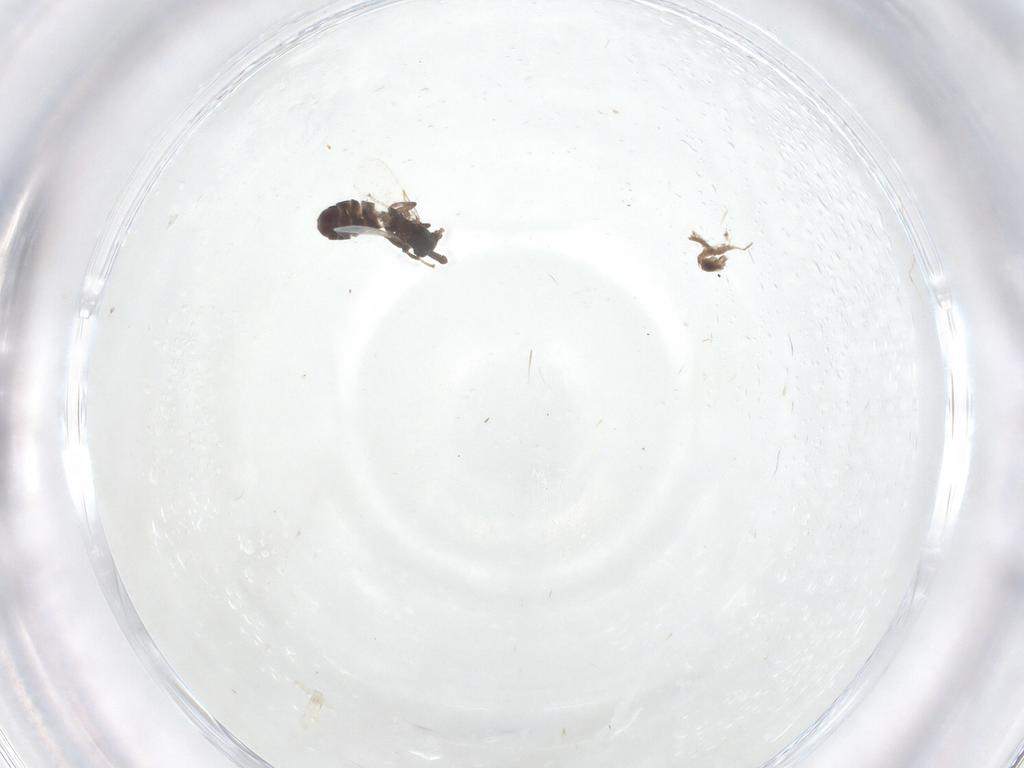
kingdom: Animalia
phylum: Arthropoda
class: Insecta
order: Diptera
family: Scatopsidae
